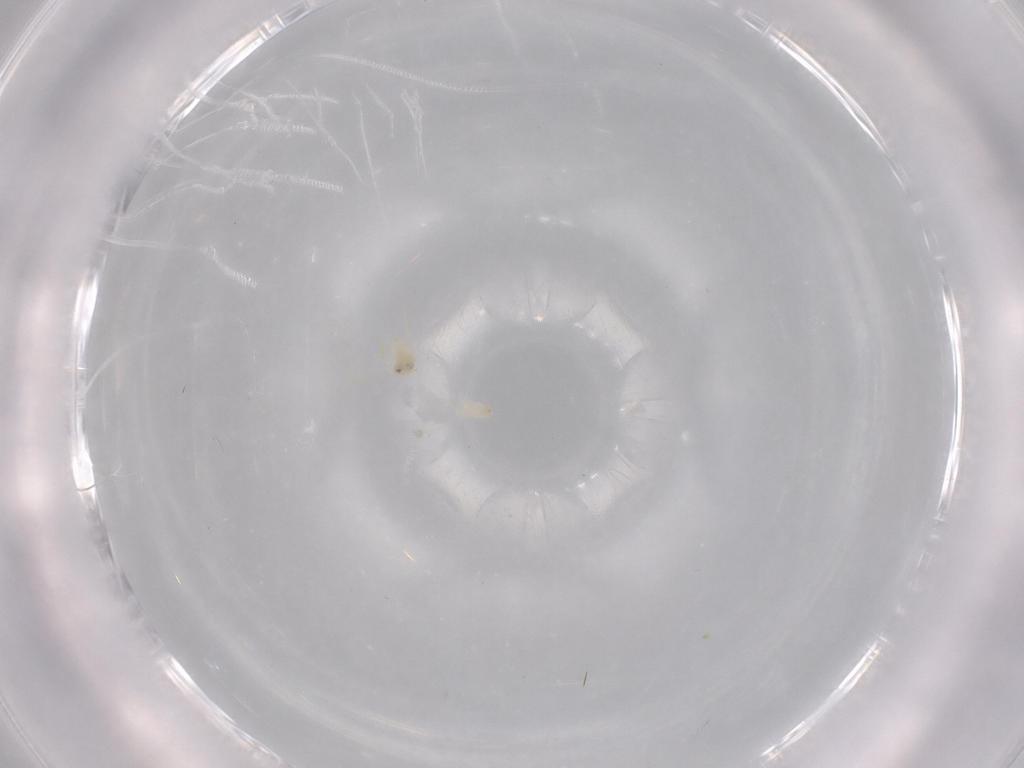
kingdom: Animalia
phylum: Arthropoda
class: Insecta
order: Hemiptera
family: Aleyrodidae
